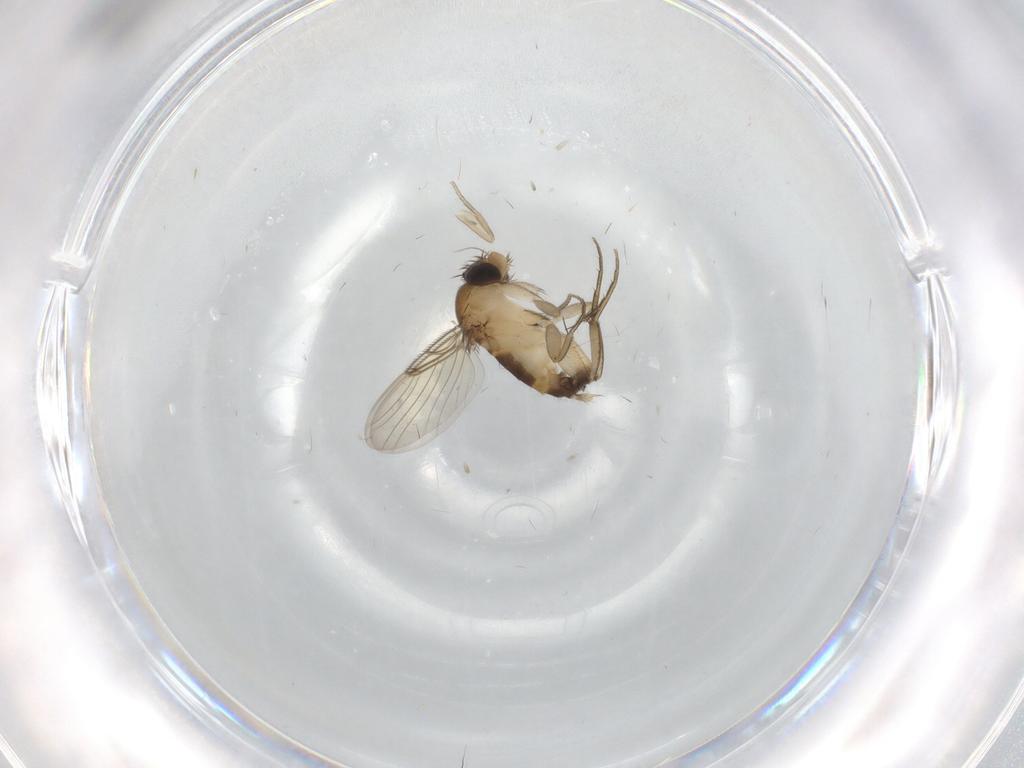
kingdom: Animalia
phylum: Arthropoda
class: Insecta
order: Diptera
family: Phoridae
